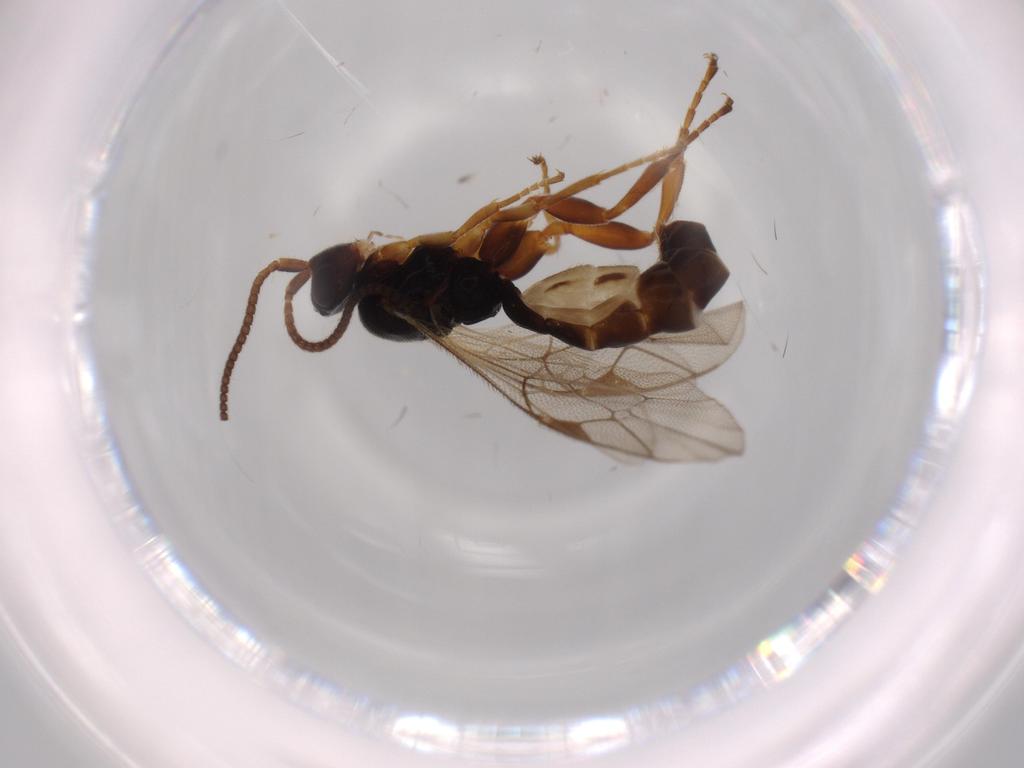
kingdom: Animalia
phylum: Arthropoda
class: Insecta
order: Hymenoptera
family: Ichneumonidae
